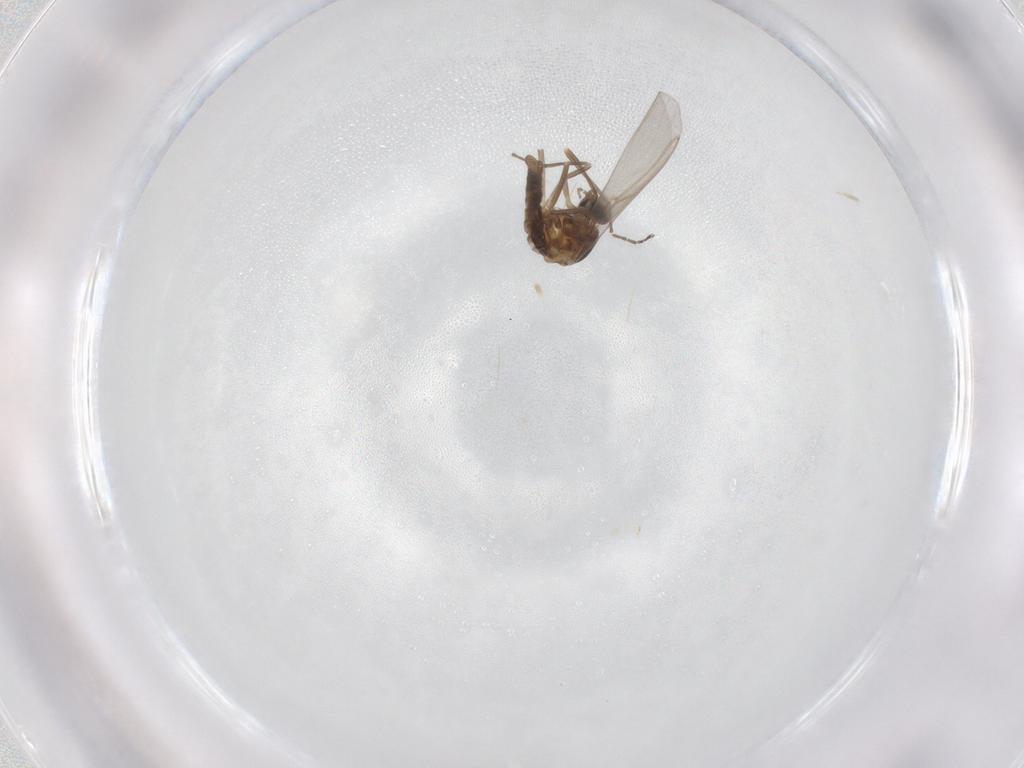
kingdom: Animalia
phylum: Arthropoda
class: Insecta
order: Diptera
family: Cecidomyiidae
